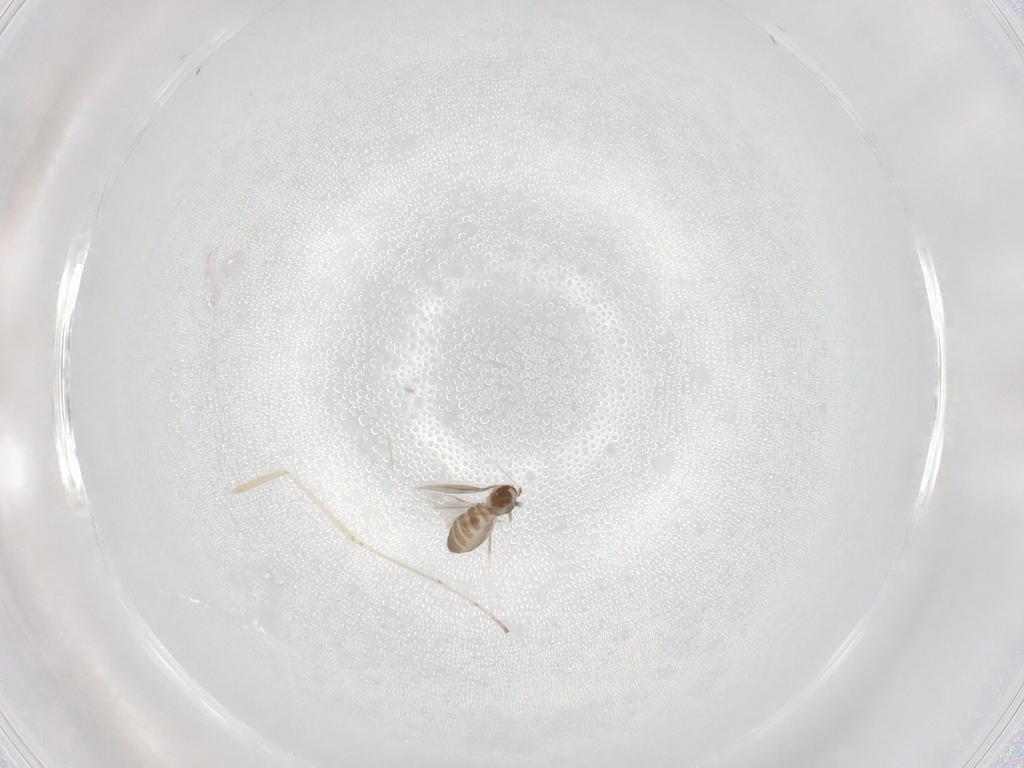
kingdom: Animalia
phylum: Arthropoda
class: Insecta
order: Diptera
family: Cecidomyiidae
